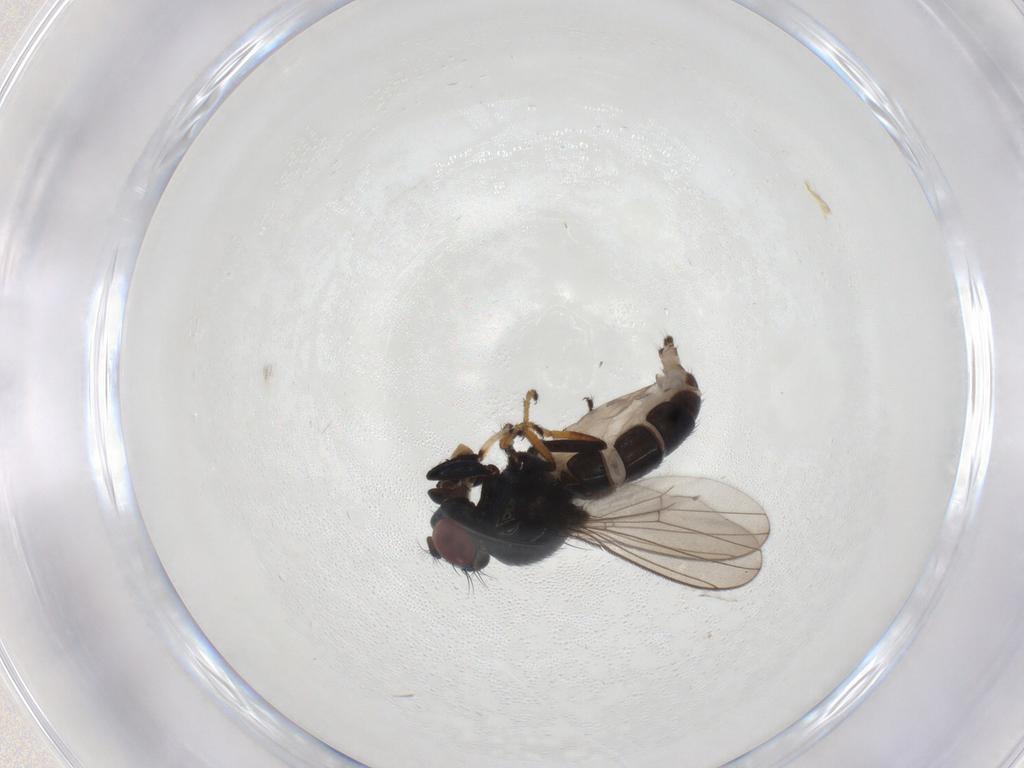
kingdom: Animalia
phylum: Arthropoda
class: Insecta
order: Diptera
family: Ephydridae
